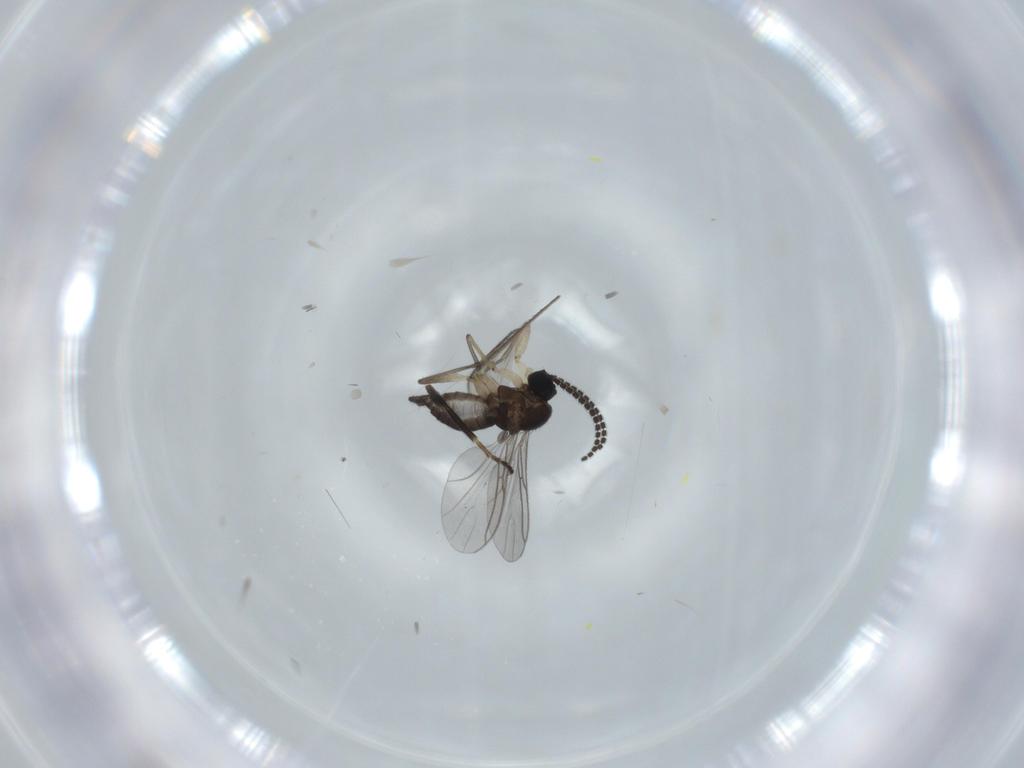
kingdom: Animalia
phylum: Arthropoda
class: Insecta
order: Diptera
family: Sciaridae
